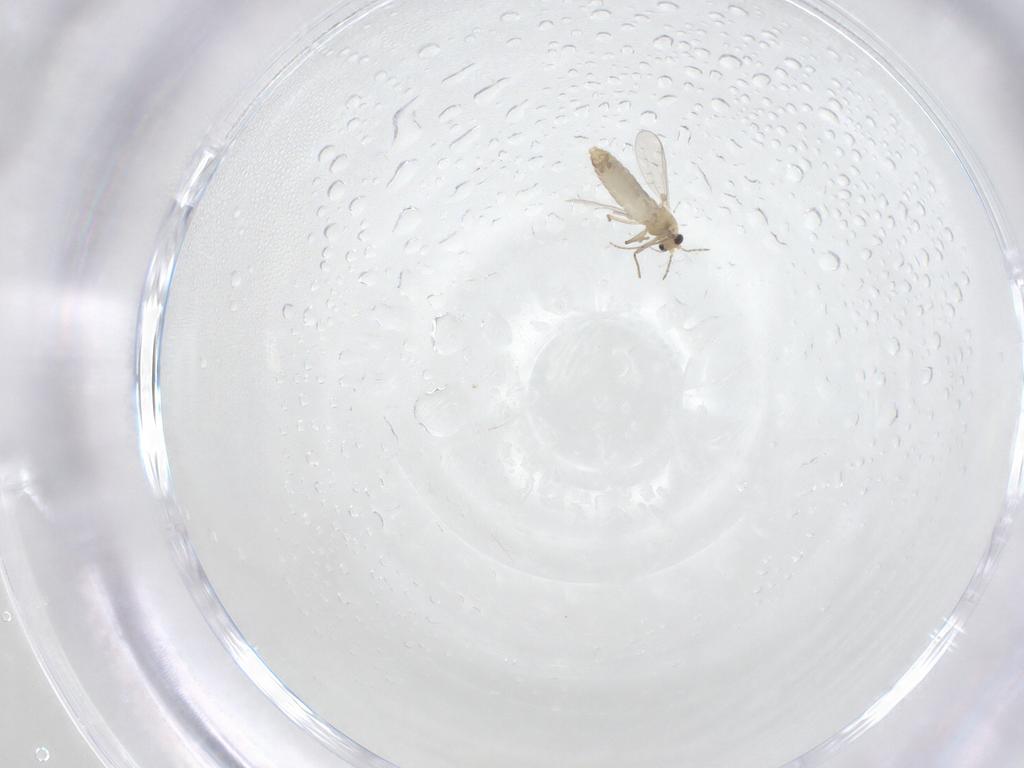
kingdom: Animalia
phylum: Arthropoda
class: Insecta
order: Diptera
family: Chironomidae
